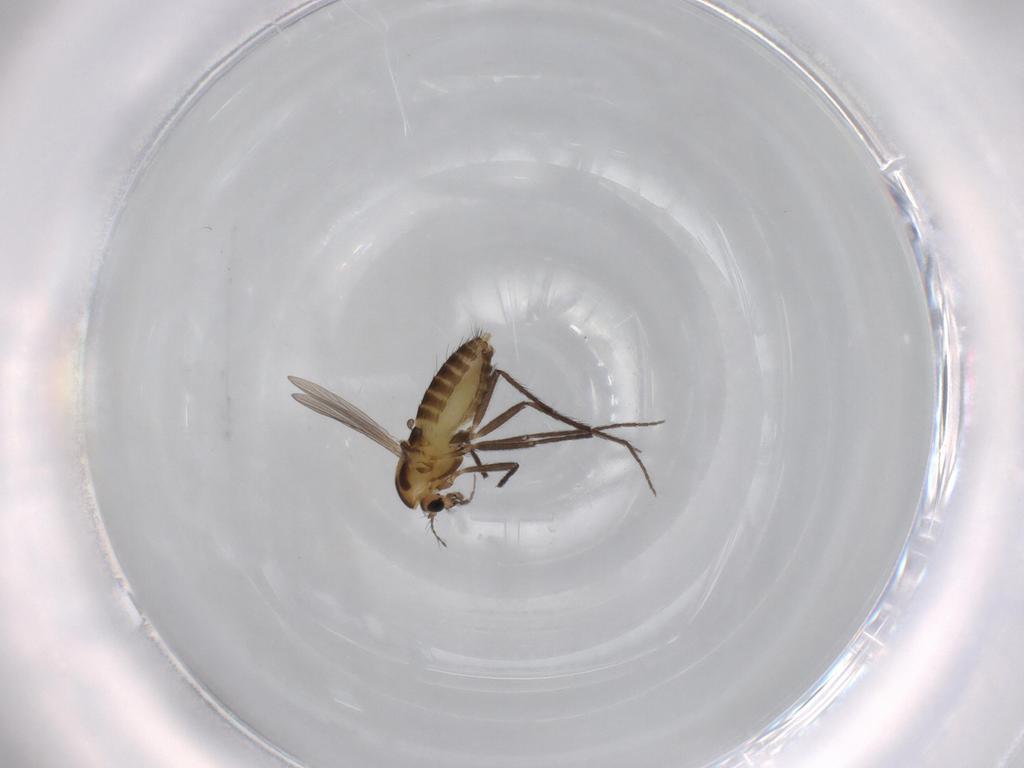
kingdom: Animalia
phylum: Arthropoda
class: Insecta
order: Diptera
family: Chironomidae
